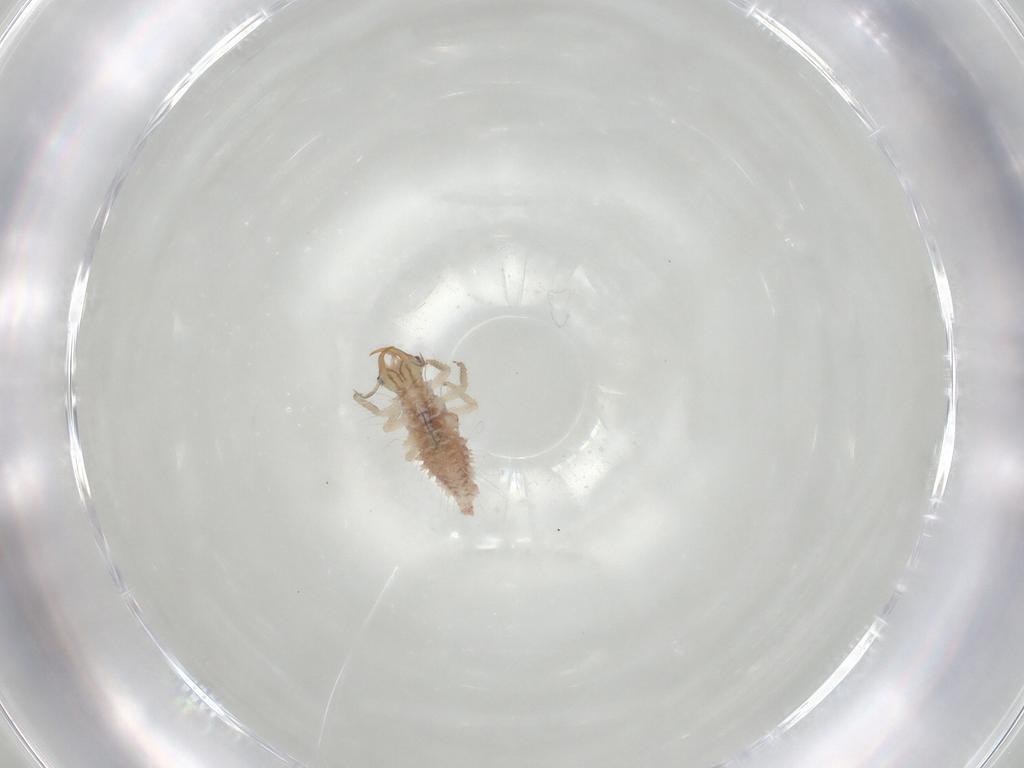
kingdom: Animalia
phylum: Arthropoda
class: Insecta
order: Neuroptera
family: Chrysopidae
